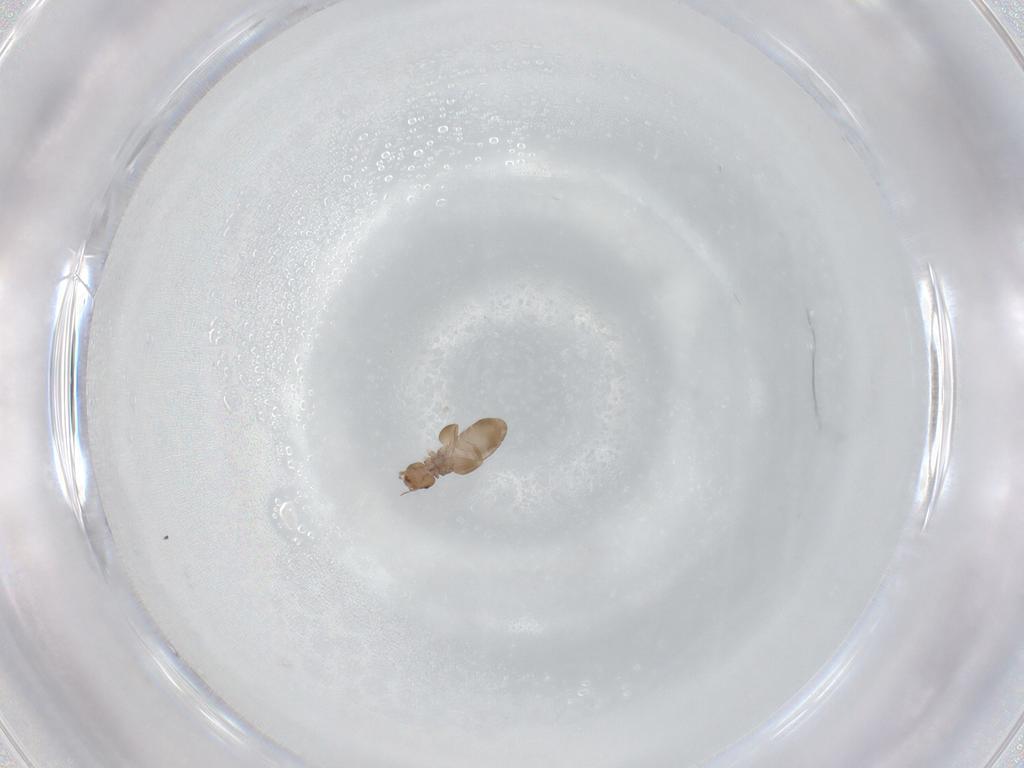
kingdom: Animalia
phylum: Arthropoda
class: Insecta
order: Psocodea
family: Liposcelididae
